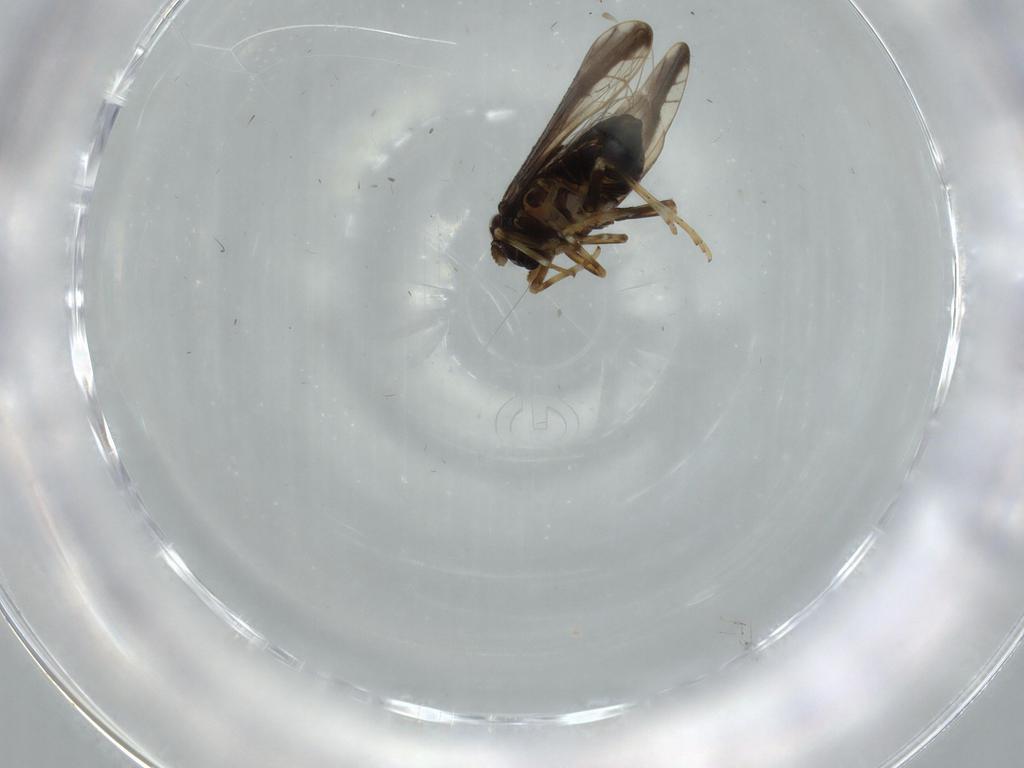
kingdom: Animalia
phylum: Arthropoda
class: Insecta
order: Hemiptera
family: Delphacidae
